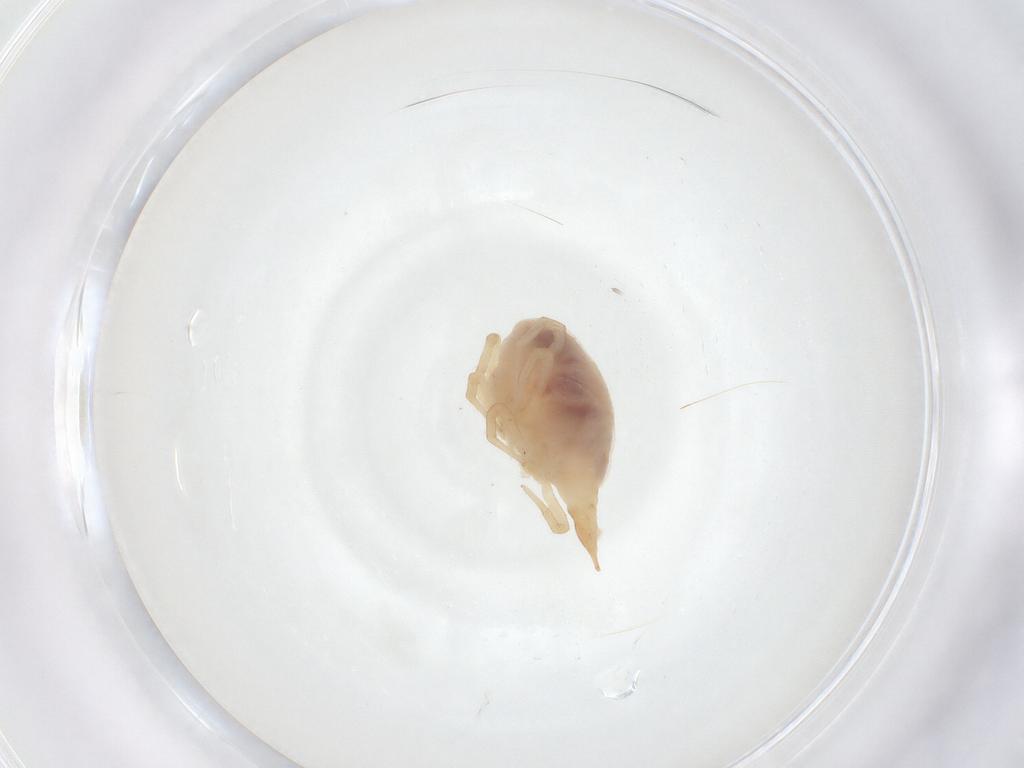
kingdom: Animalia
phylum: Arthropoda
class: Arachnida
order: Trombidiformes
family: Bdellidae
